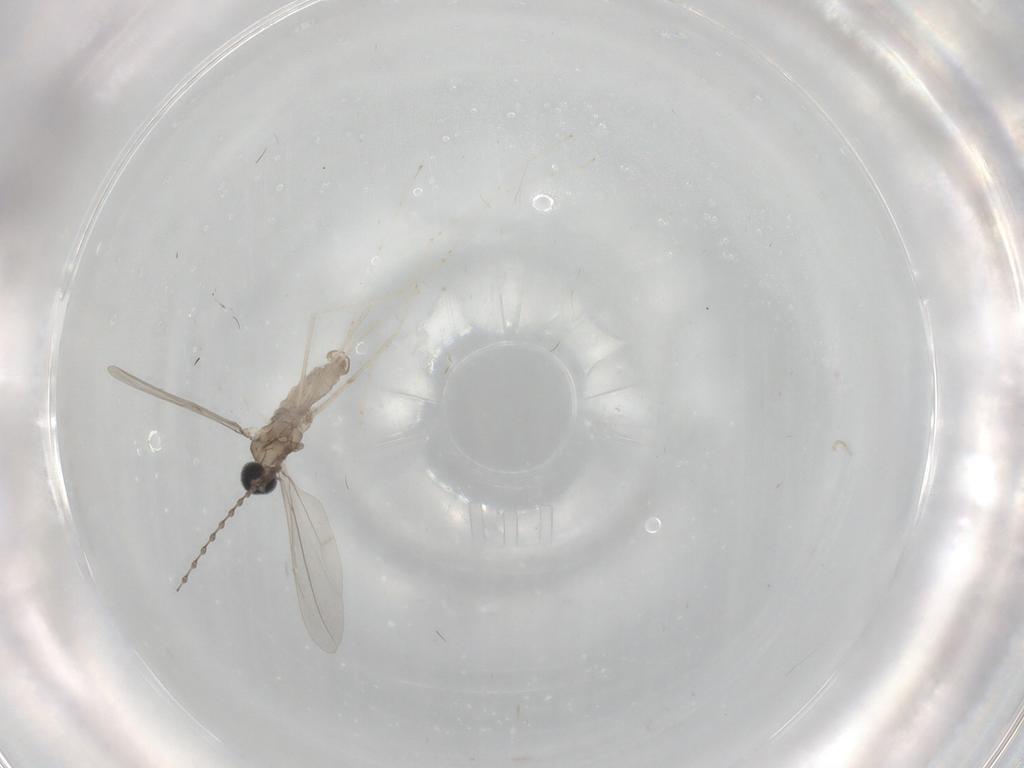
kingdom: Animalia
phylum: Arthropoda
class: Insecta
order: Diptera
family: Cecidomyiidae
